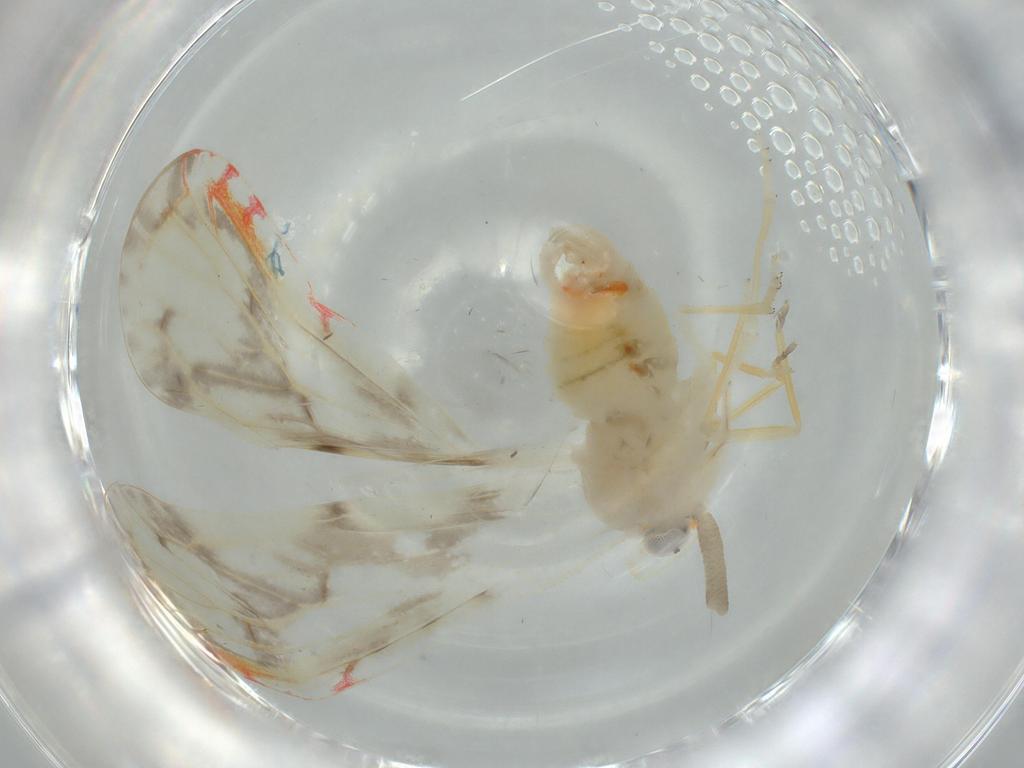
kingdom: Animalia
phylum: Arthropoda
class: Insecta
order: Hemiptera
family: Derbidae
